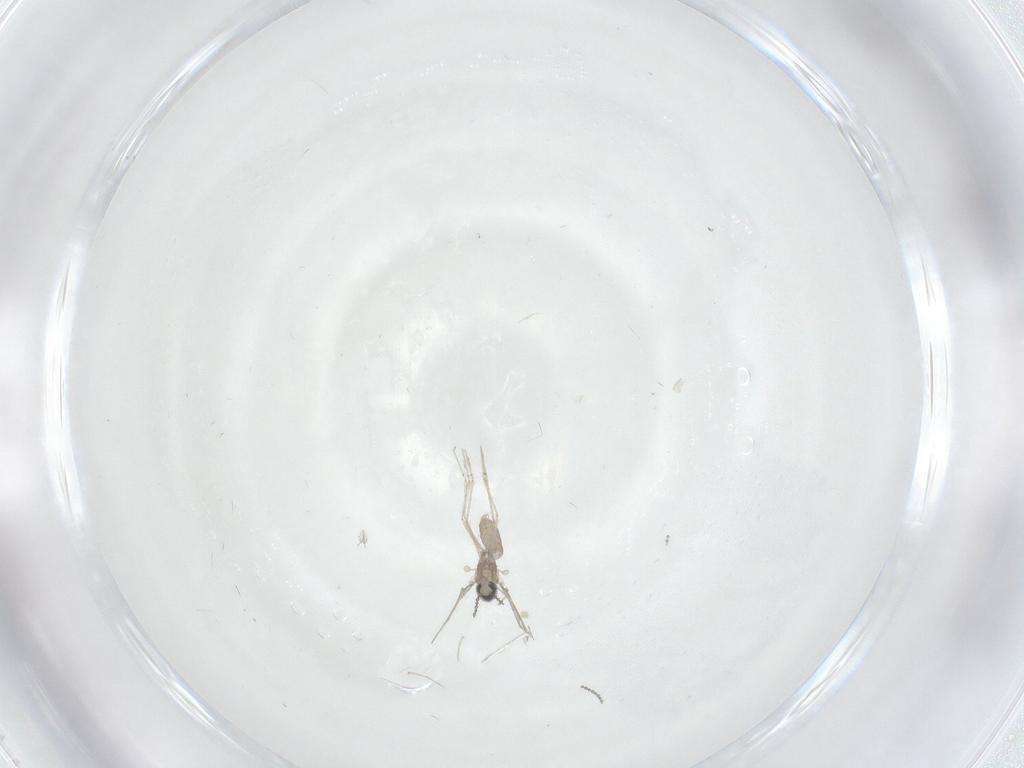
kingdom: Animalia
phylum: Arthropoda
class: Insecta
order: Diptera
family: Cecidomyiidae
